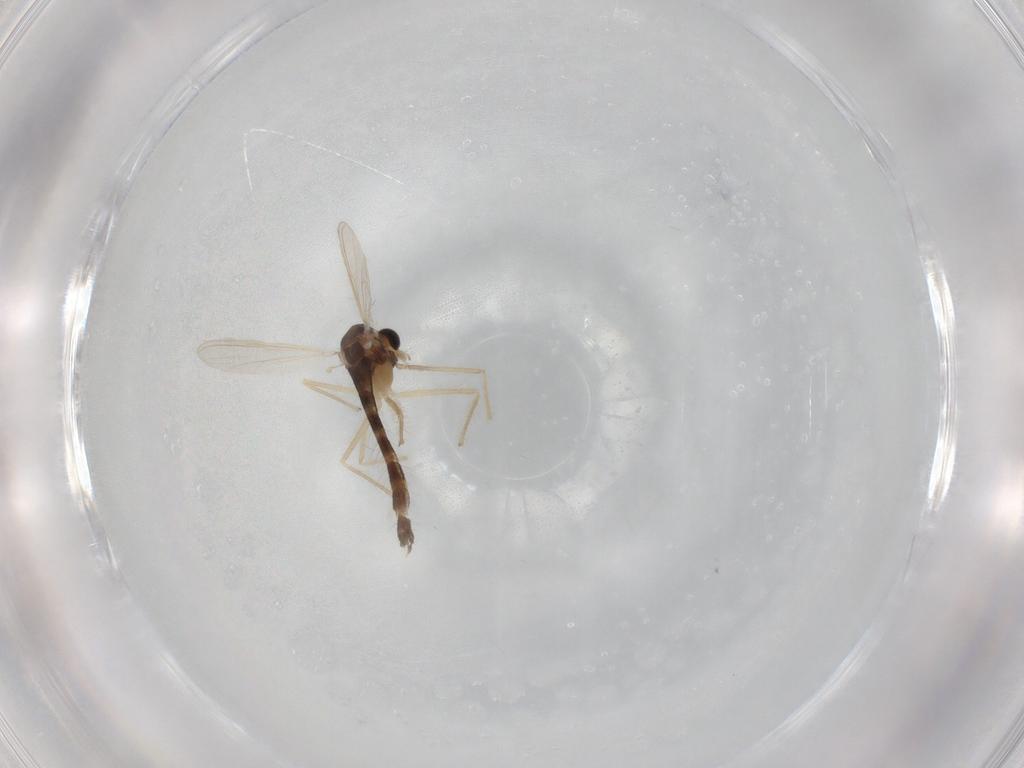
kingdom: Animalia
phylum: Arthropoda
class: Insecta
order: Diptera
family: Chironomidae
